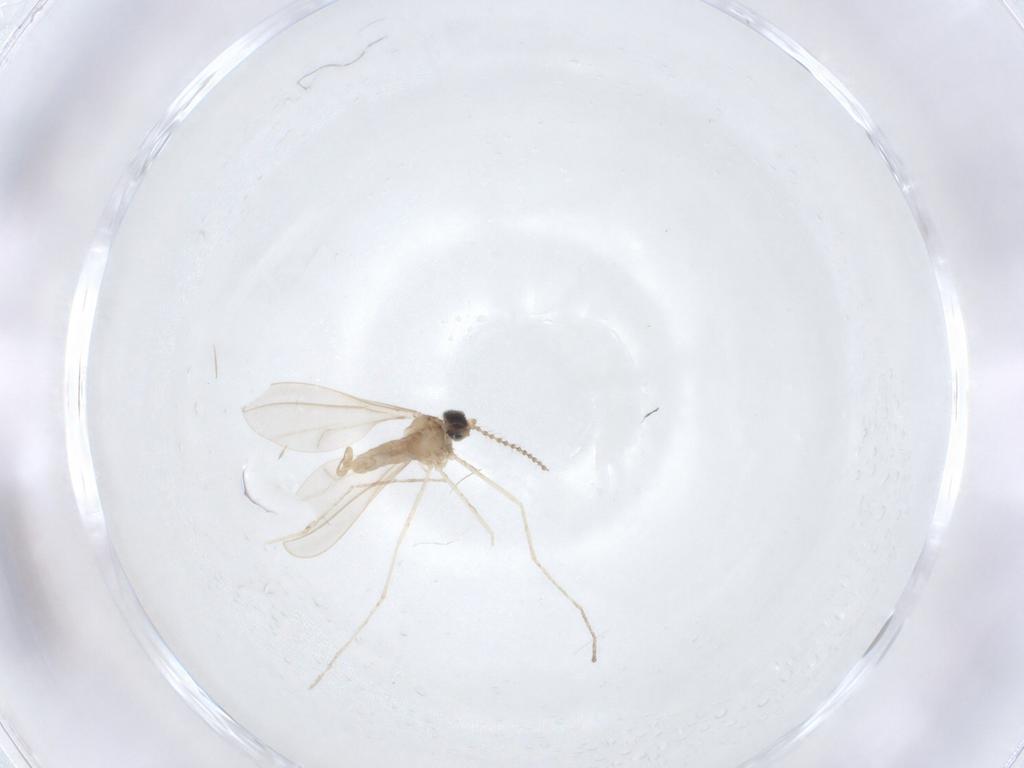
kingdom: Animalia
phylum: Arthropoda
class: Insecta
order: Diptera
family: Cecidomyiidae
